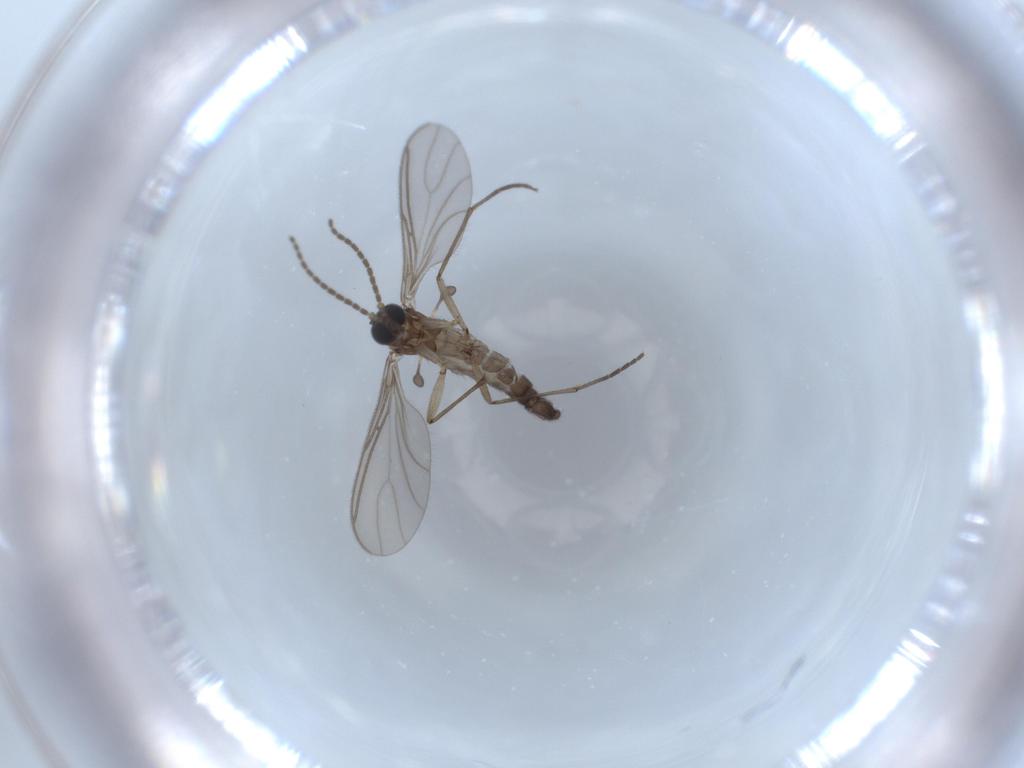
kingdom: Animalia
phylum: Arthropoda
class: Insecta
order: Diptera
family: Sciaridae
